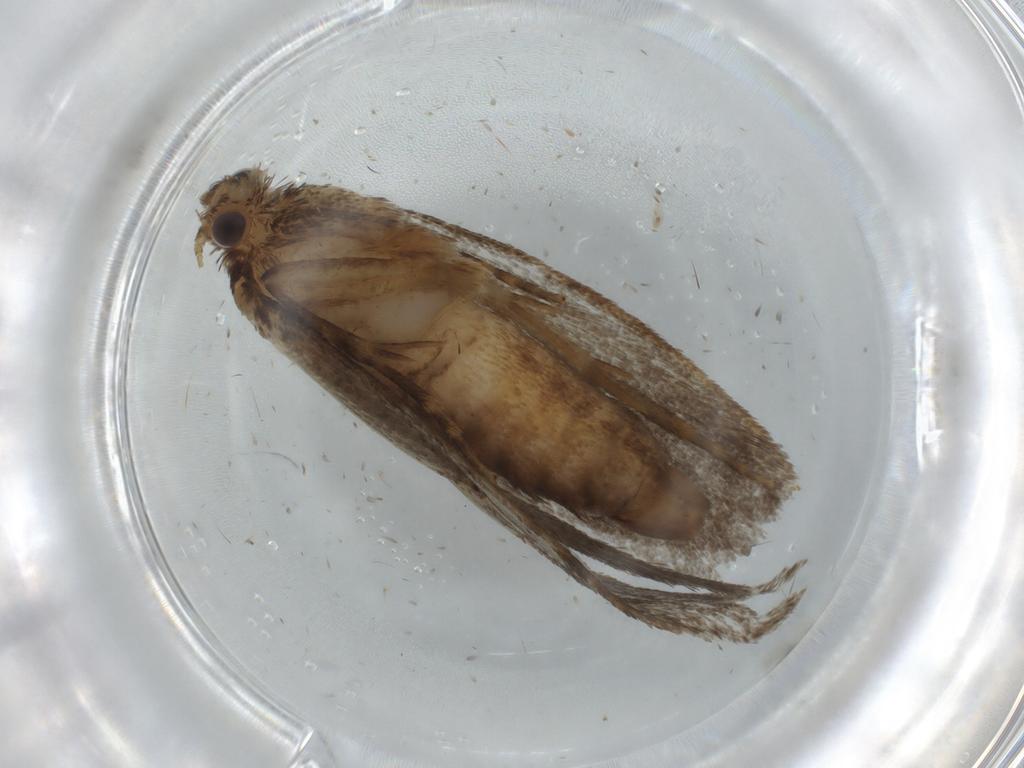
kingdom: Animalia
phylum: Arthropoda
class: Insecta
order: Lepidoptera
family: Tineidae
